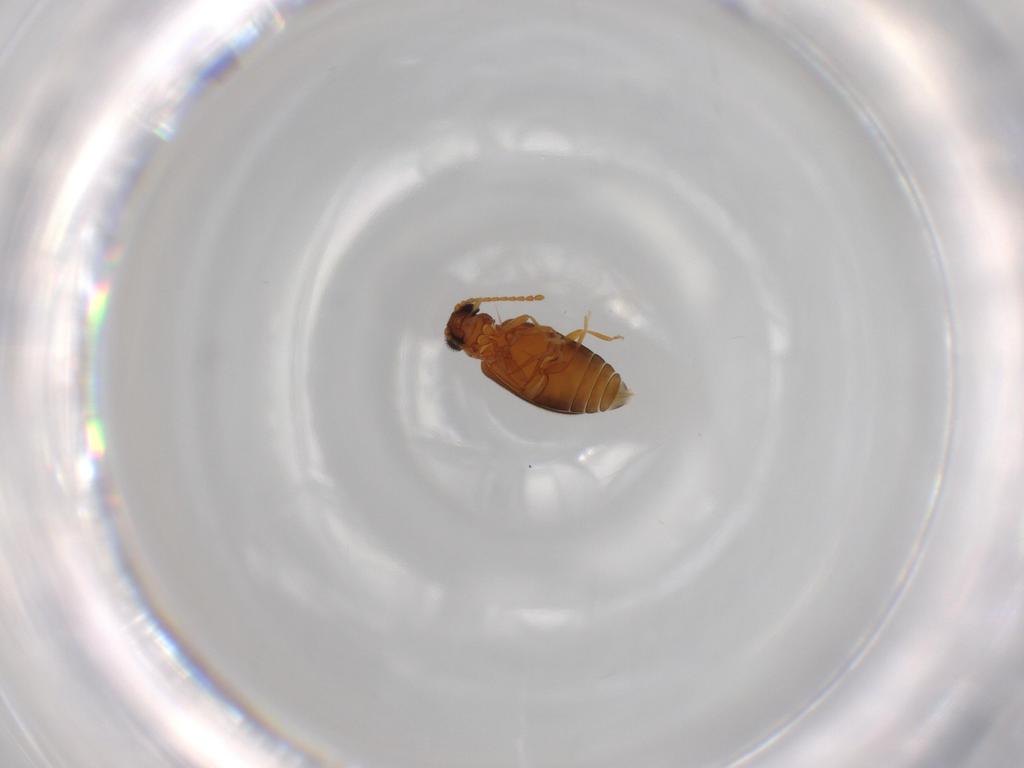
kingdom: Animalia
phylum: Arthropoda
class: Insecta
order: Coleoptera
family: Aderidae
